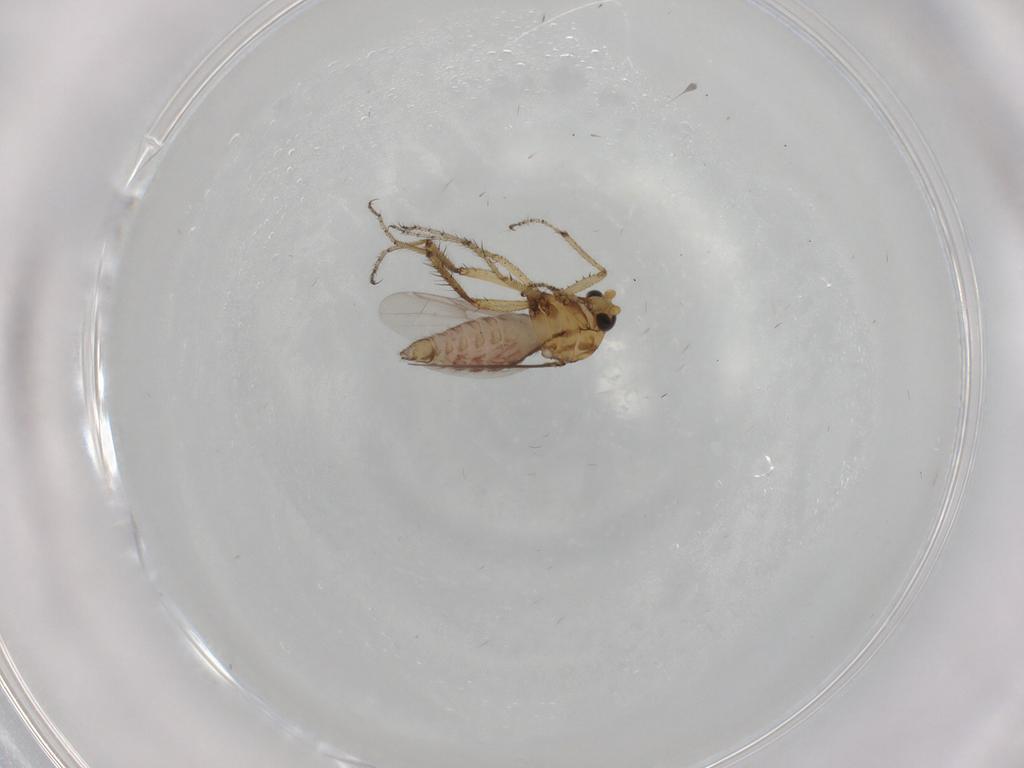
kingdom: Animalia
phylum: Arthropoda
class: Insecta
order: Diptera
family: Ceratopogonidae
